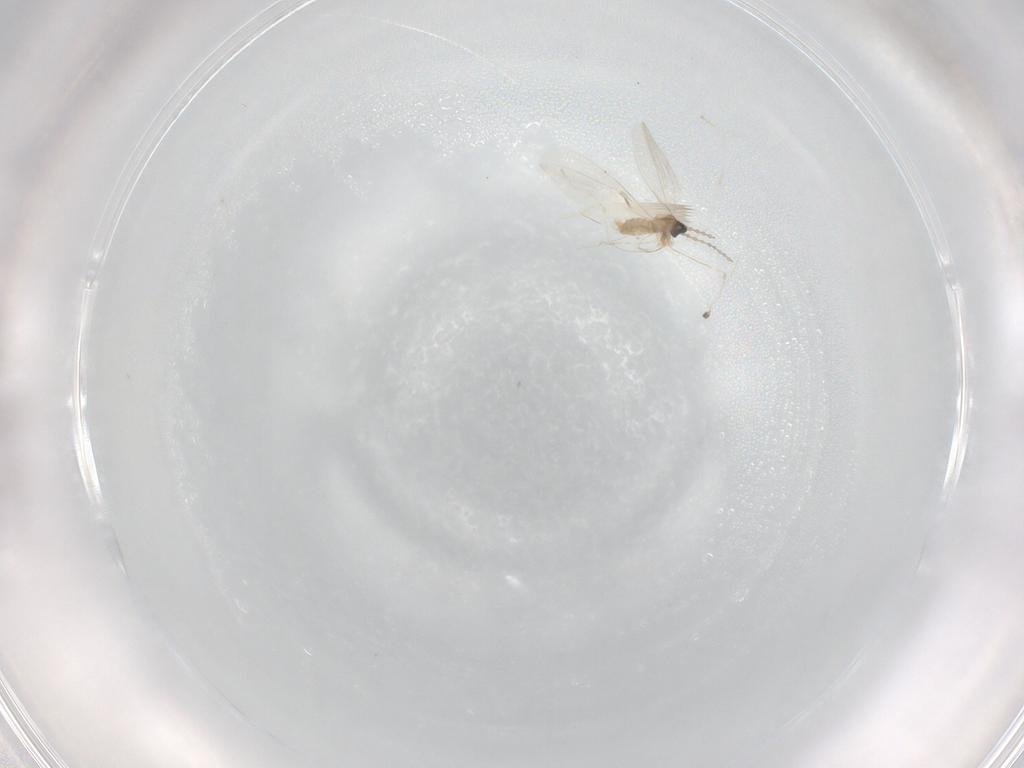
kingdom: Animalia
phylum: Arthropoda
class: Insecta
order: Diptera
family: Cecidomyiidae
